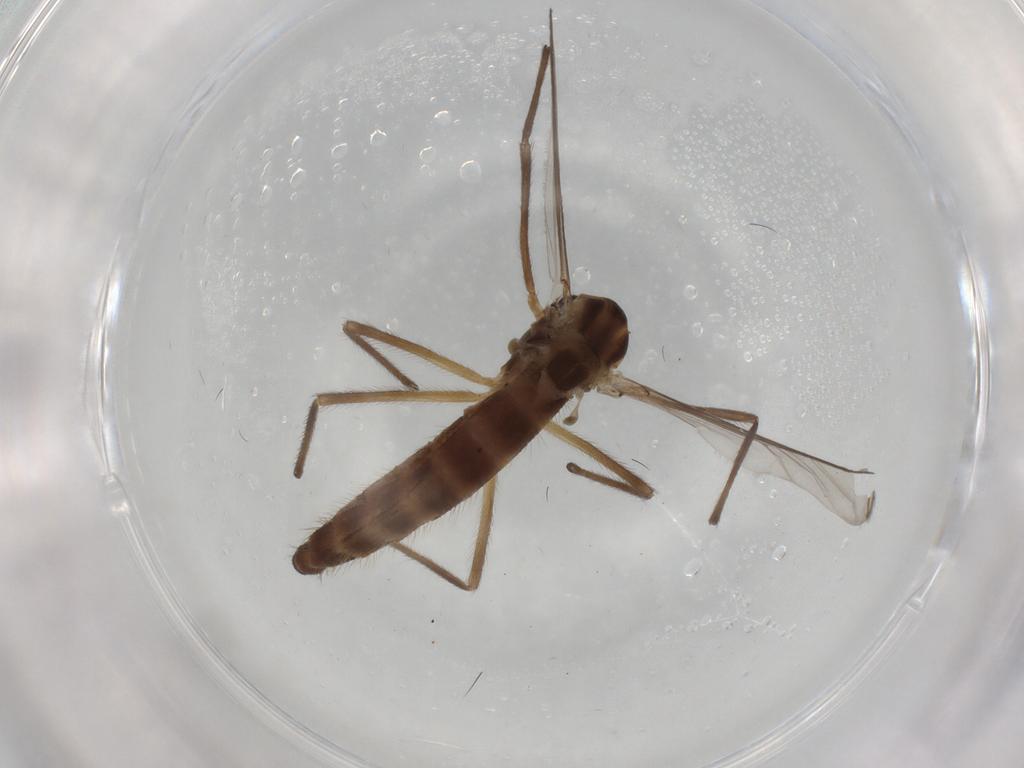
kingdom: Animalia
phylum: Arthropoda
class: Insecta
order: Diptera
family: Chironomidae
